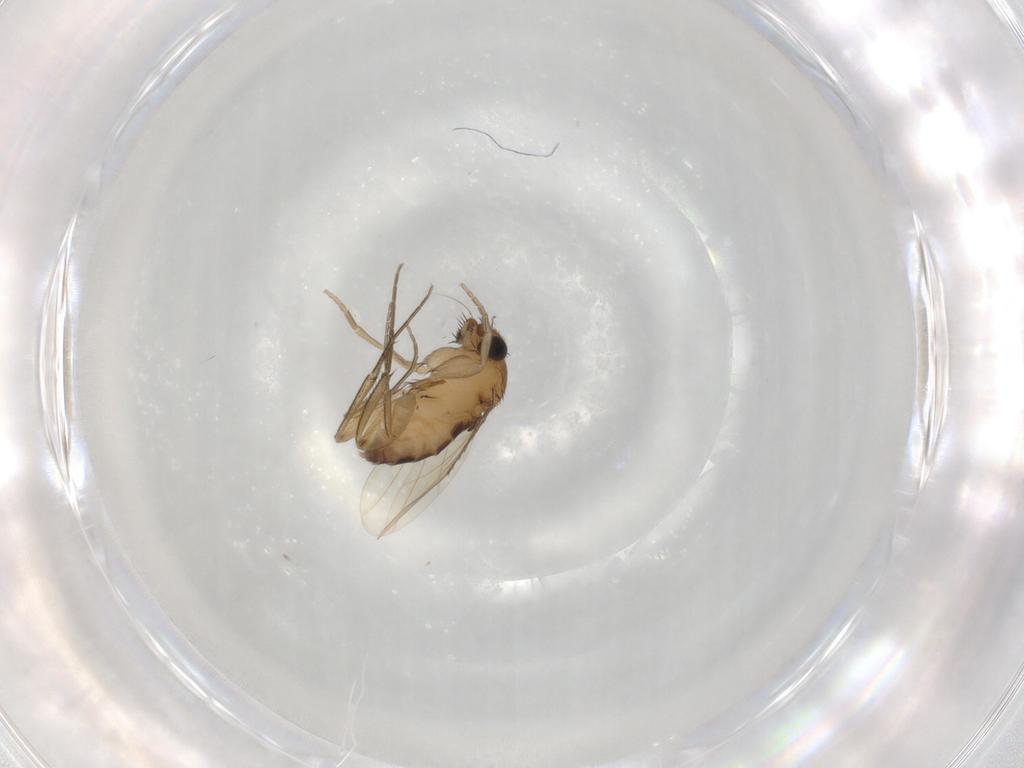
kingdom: Animalia
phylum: Arthropoda
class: Insecta
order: Diptera
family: Phoridae
